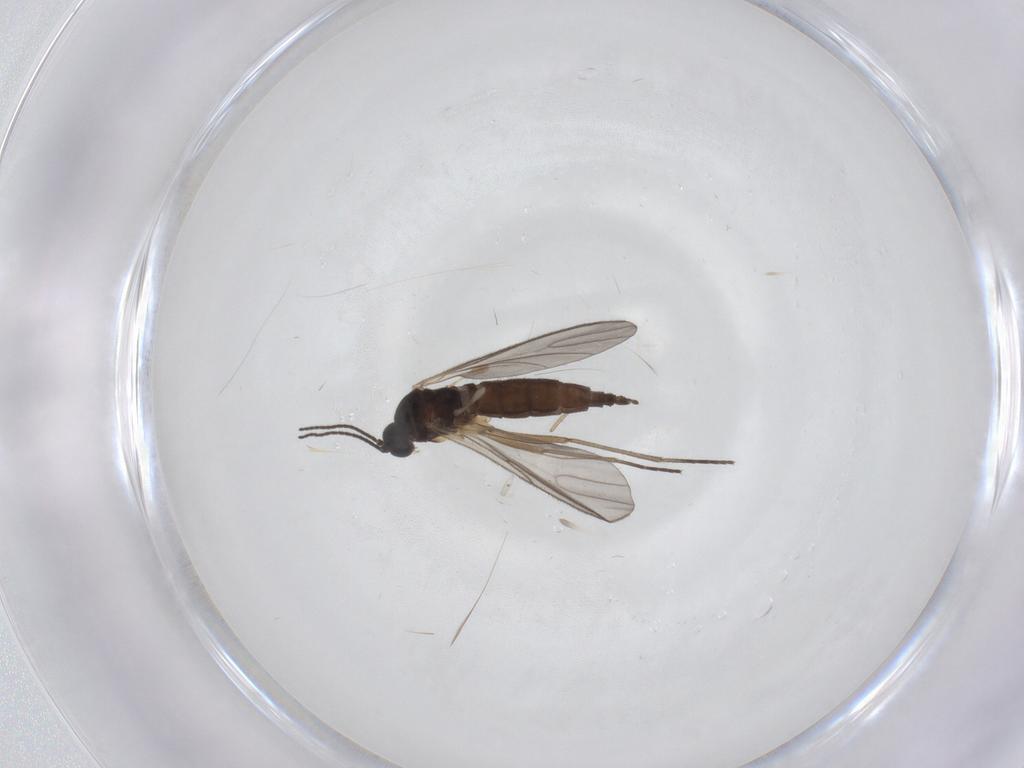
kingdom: Animalia
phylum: Arthropoda
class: Insecta
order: Diptera
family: Sciaridae
